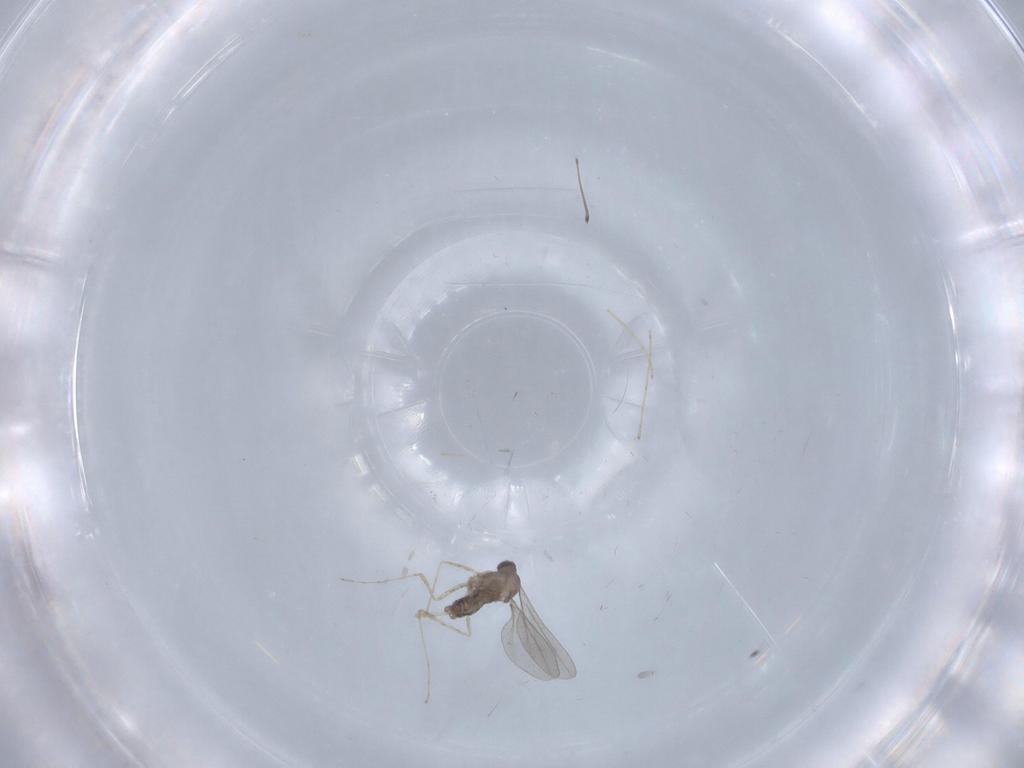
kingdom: Animalia
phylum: Arthropoda
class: Insecta
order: Diptera
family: Chironomidae
